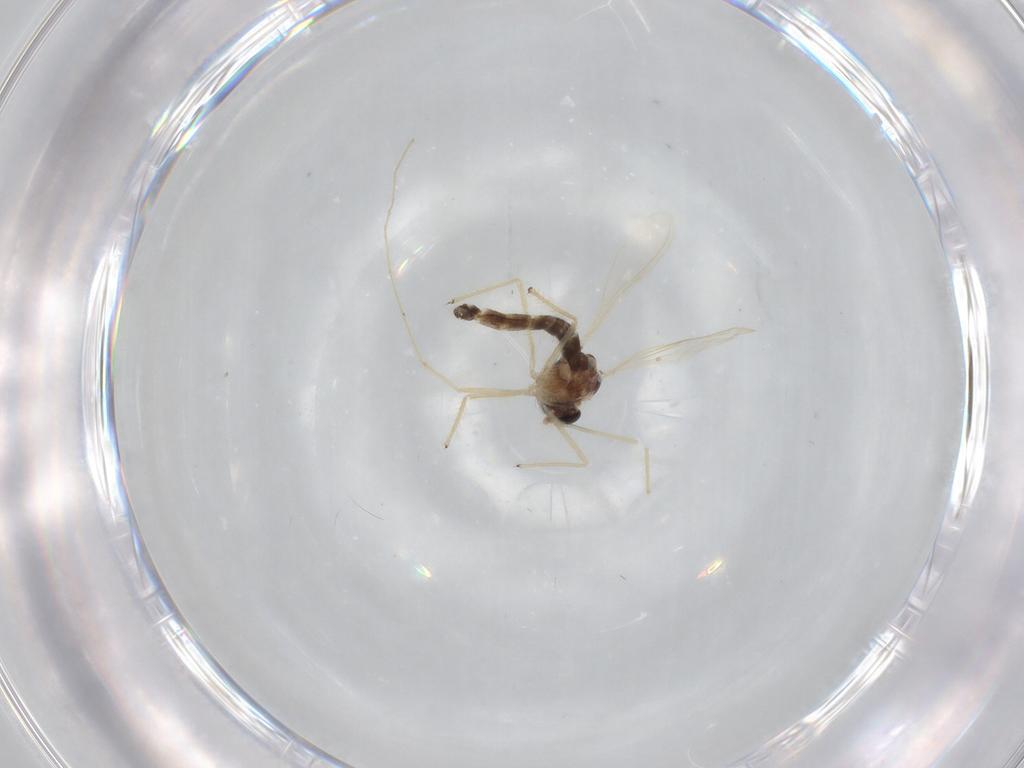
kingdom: Animalia
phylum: Arthropoda
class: Insecta
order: Diptera
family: Chironomidae
